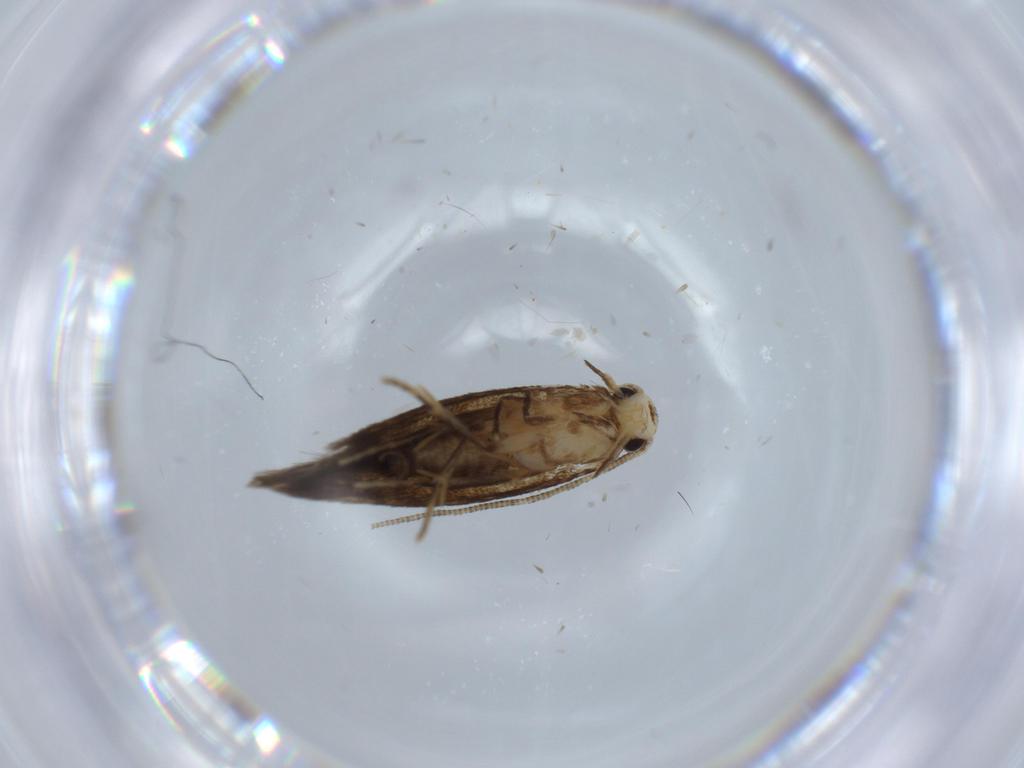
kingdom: Animalia
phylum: Arthropoda
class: Insecta
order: Lepidoptera
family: Tineidae
